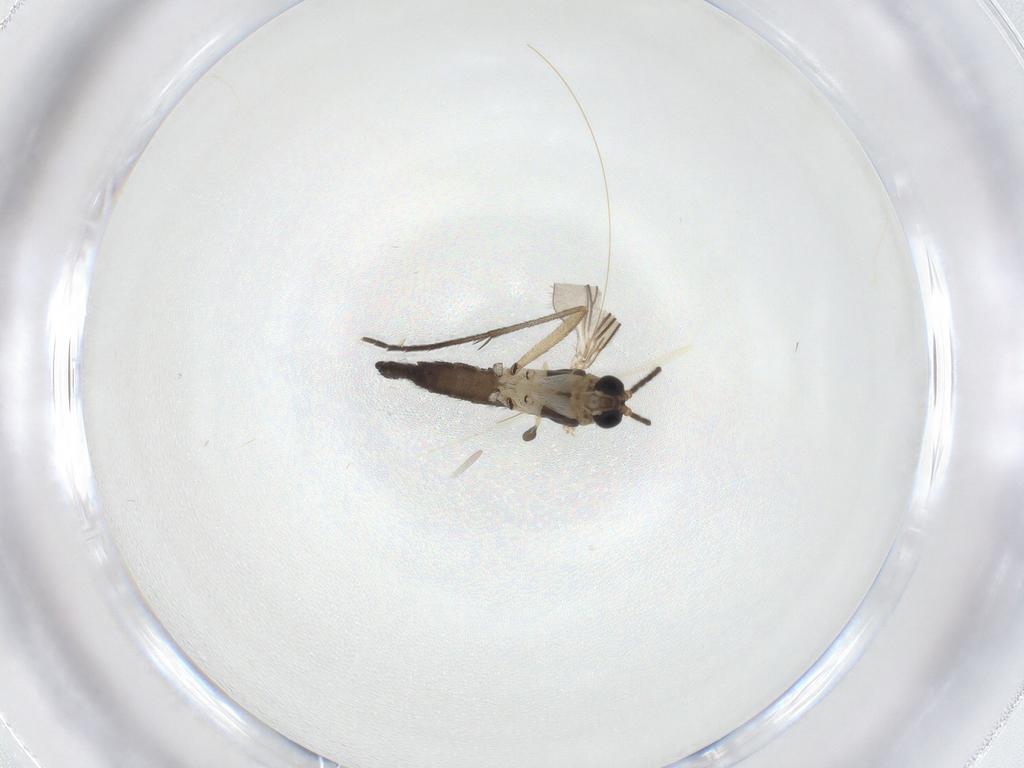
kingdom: Animalia
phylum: Arthropoda
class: Insecta
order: Diptera
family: Sciaridae
